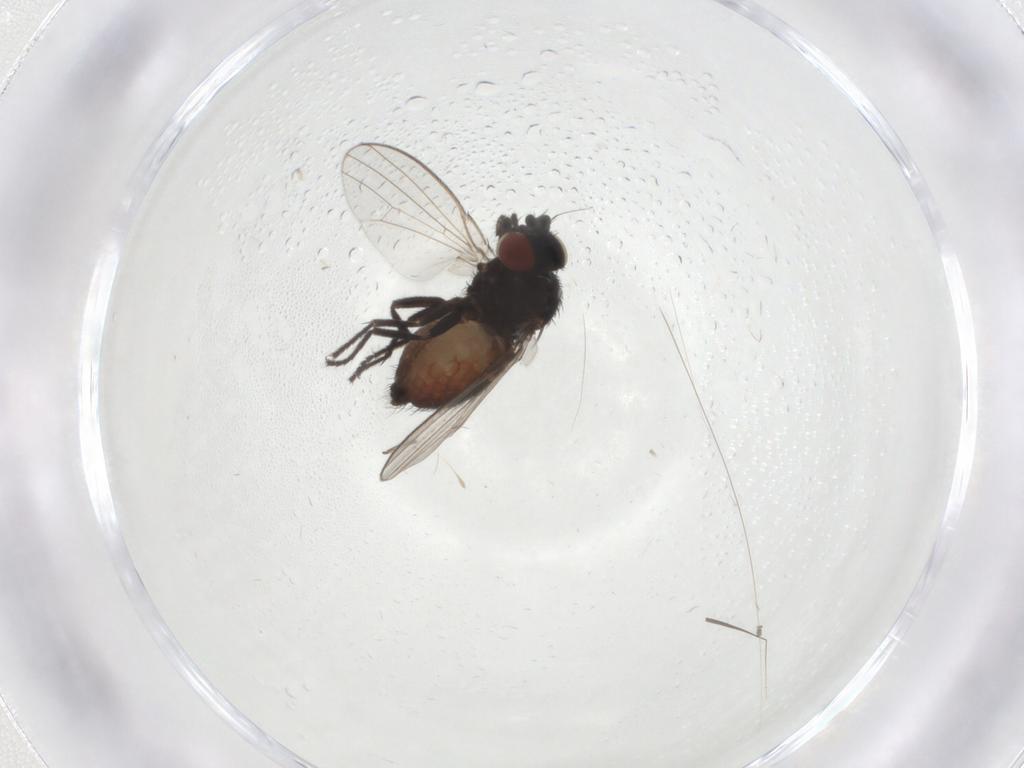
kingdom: Animalia
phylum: Arthropoda
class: Insecta
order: Diptera
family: Milichiidae
